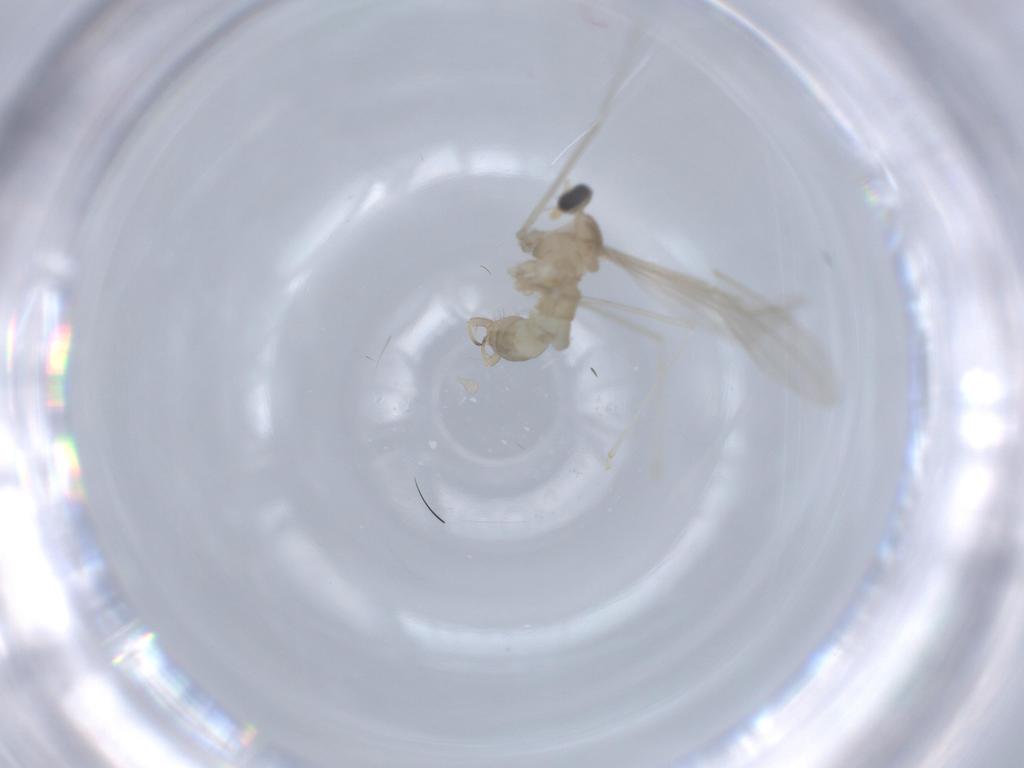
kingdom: Animalia
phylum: Arthropoda
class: Insecta
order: Diptera
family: Cecidomyiidae
